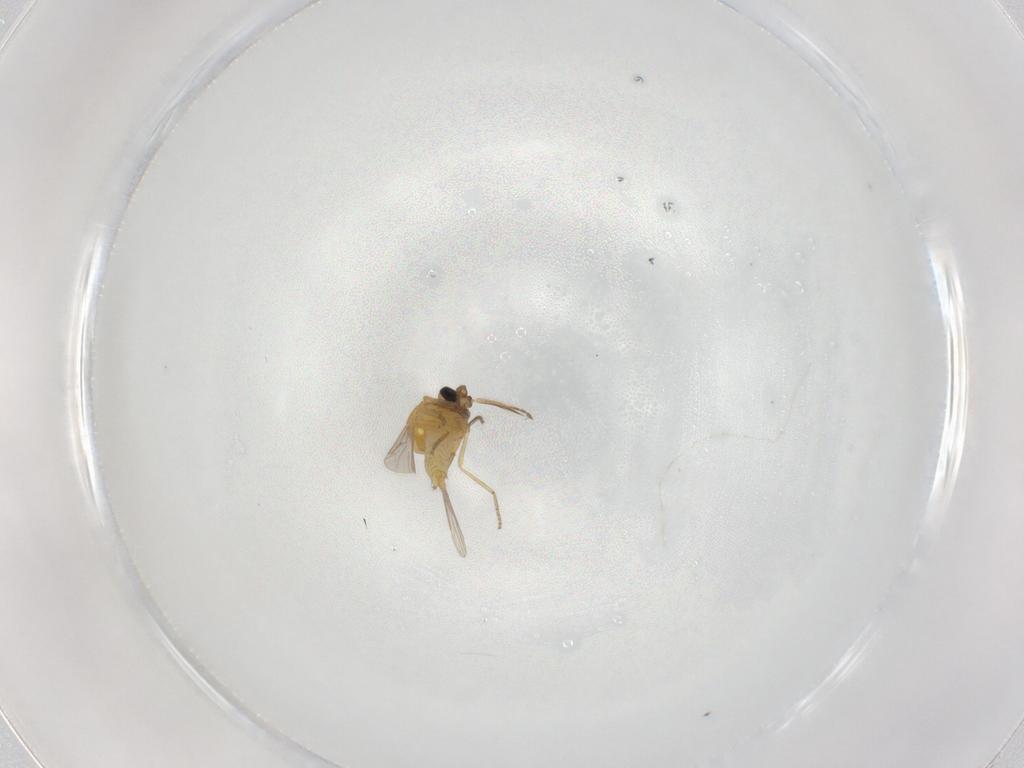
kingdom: Animalia
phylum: Arthropoda
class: Insecta
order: Diptera
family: Ceratopogonidae
